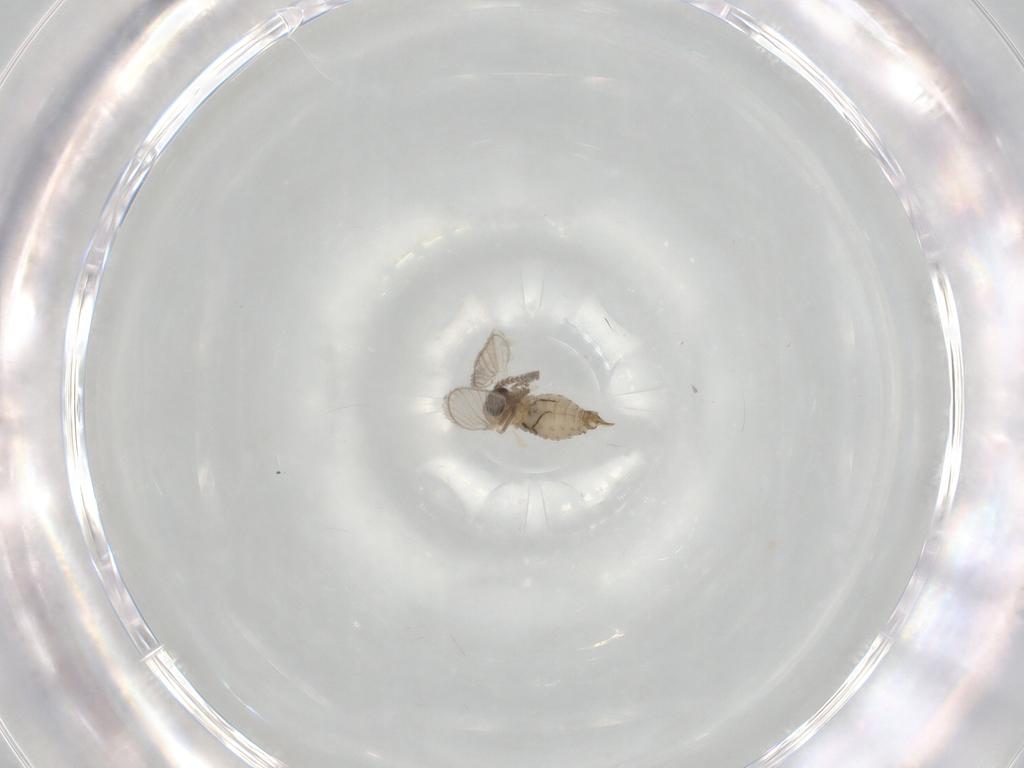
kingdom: Animalia
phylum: Arthropoda
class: Insecta
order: Diptera
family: Psychodidae
